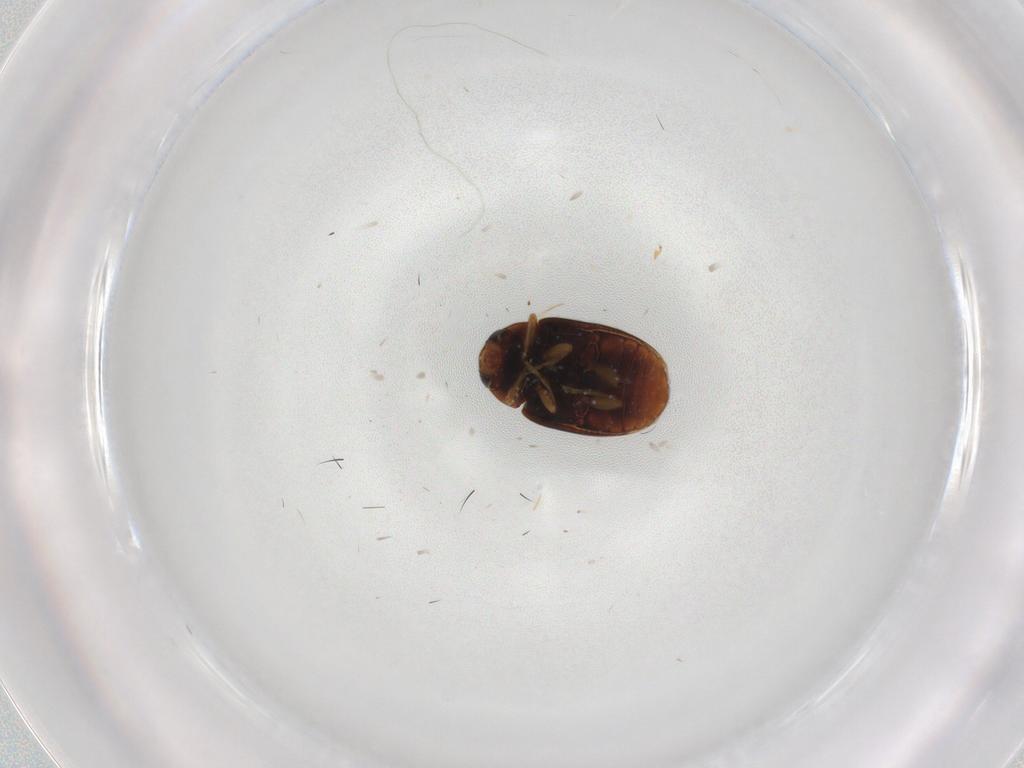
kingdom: Animalia
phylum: Arthropoda
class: Insecta
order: Coleoptera
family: Coccinellidae
